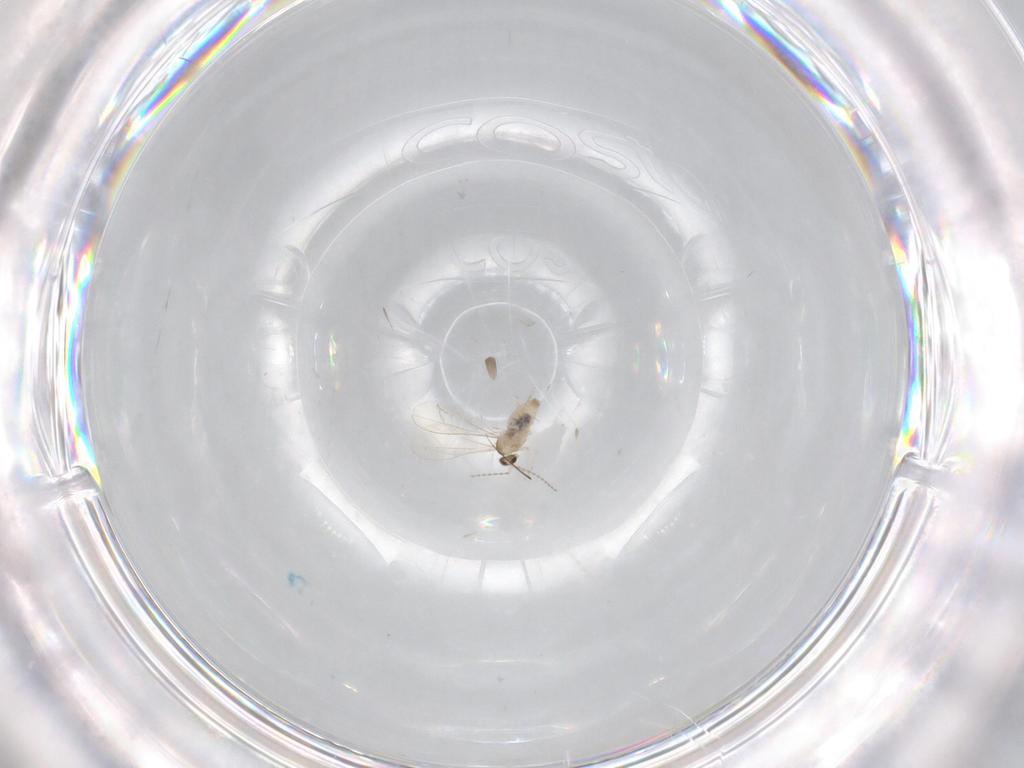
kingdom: Animalia
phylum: Arthropoda
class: Insecta
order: Diptera
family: Cecidomyiidae
